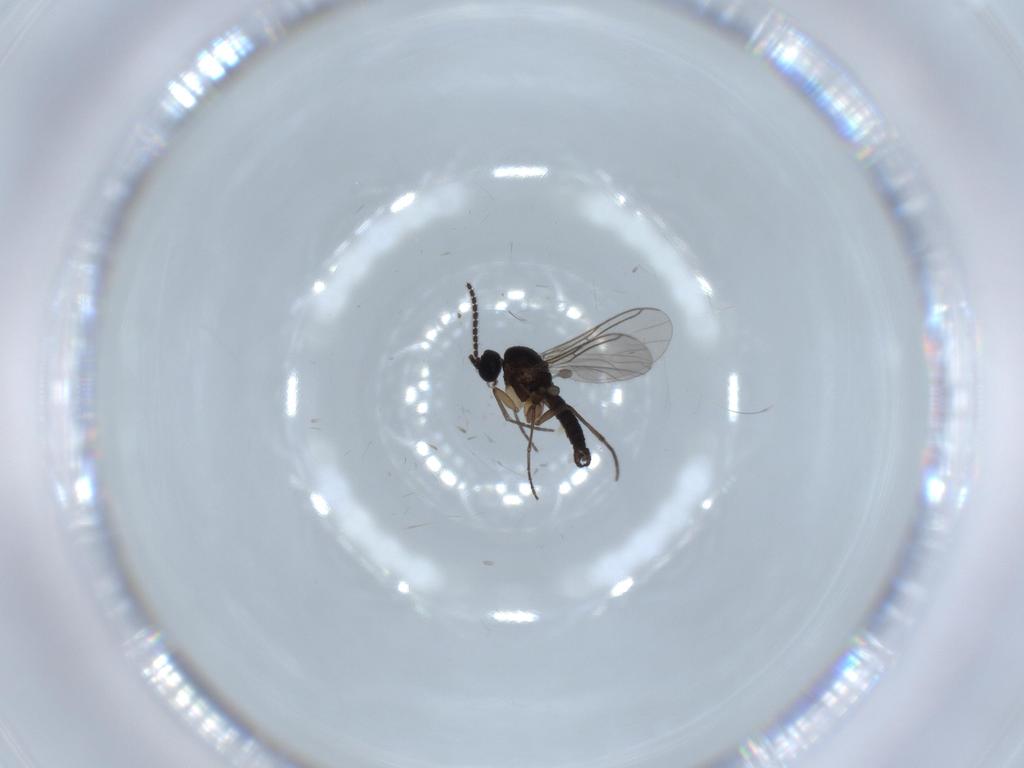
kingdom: Animalia
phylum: Arthropoda
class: Insecta
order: Diptera
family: Sciaridae
